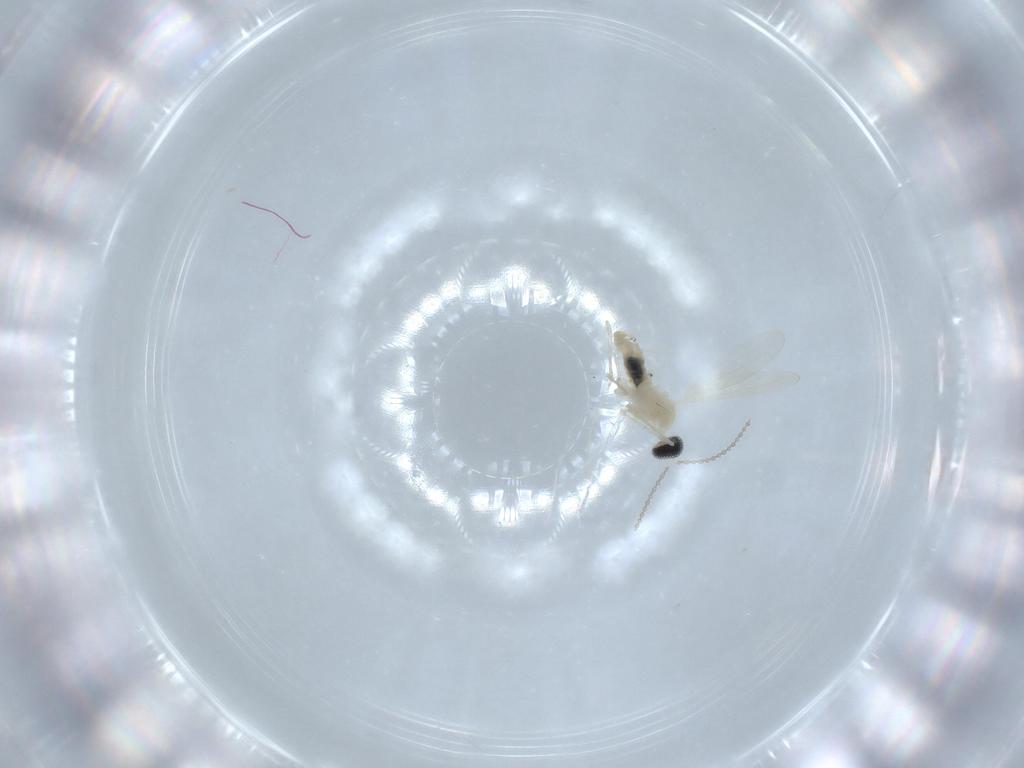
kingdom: Animalia
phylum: Arthropoda
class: Insecta
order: Diptera
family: Cecidomyiidae
